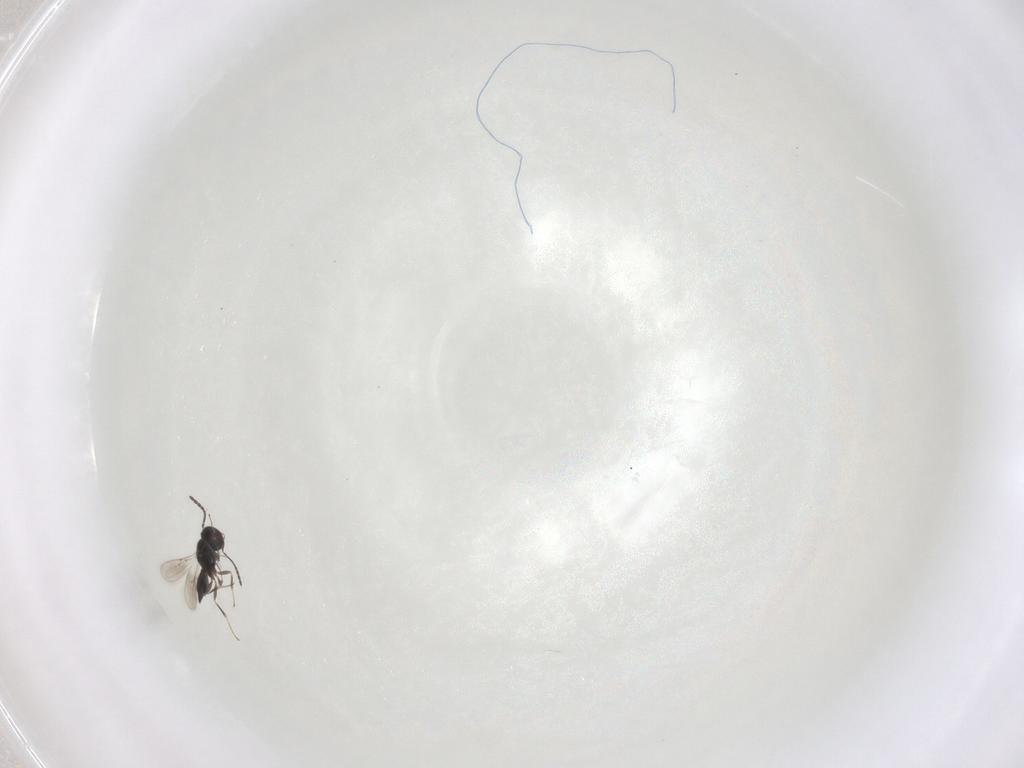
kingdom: Animalia
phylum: Arthropoda
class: Insecta
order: Hymenoptera
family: Scelionidae
